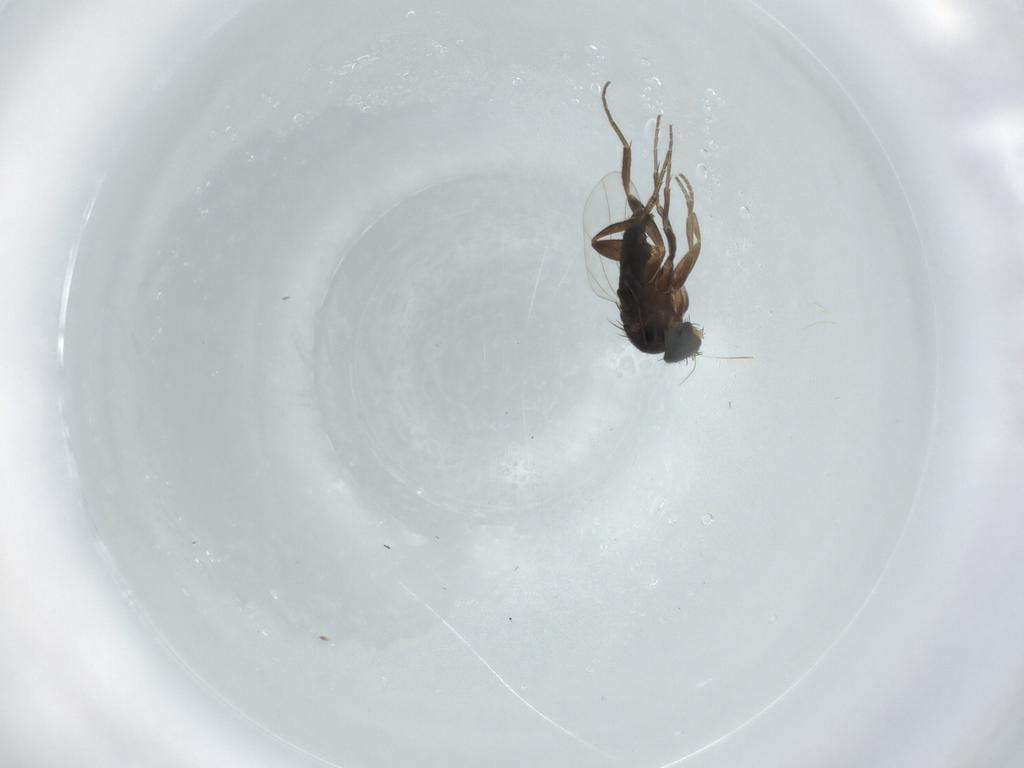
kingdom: Animalia
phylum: Arthropoda
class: Insecta
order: Diptera
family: Phoridae
